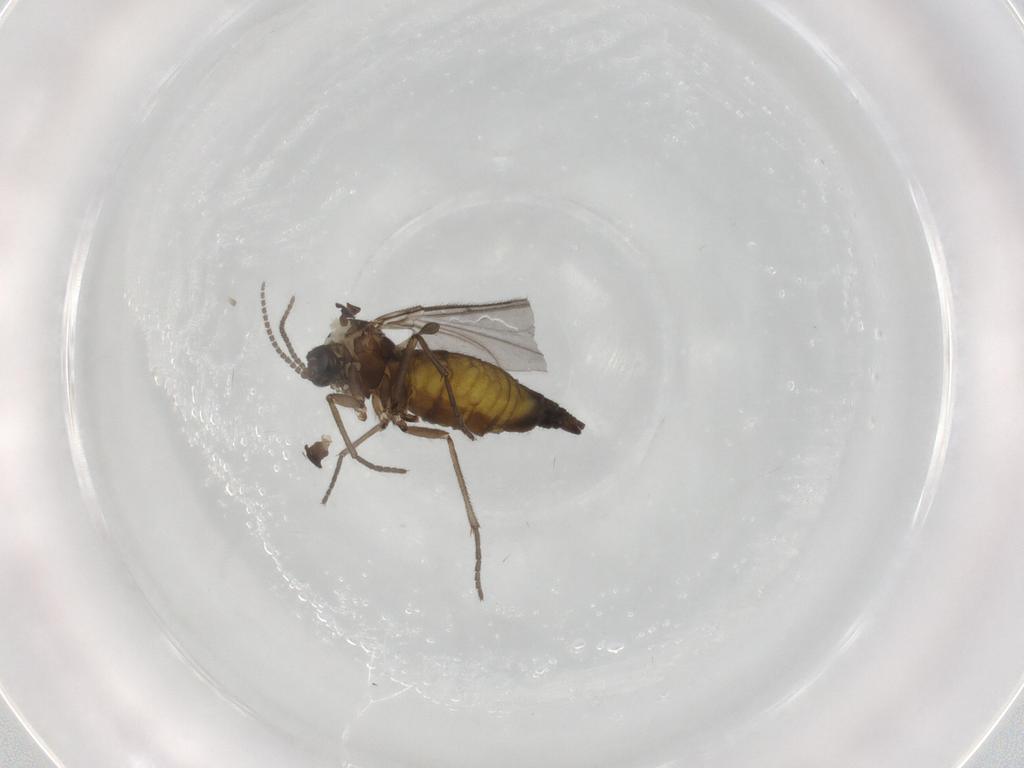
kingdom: Animalia
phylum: Arthropoda
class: Insecta
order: Diptera
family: Sciaridae
